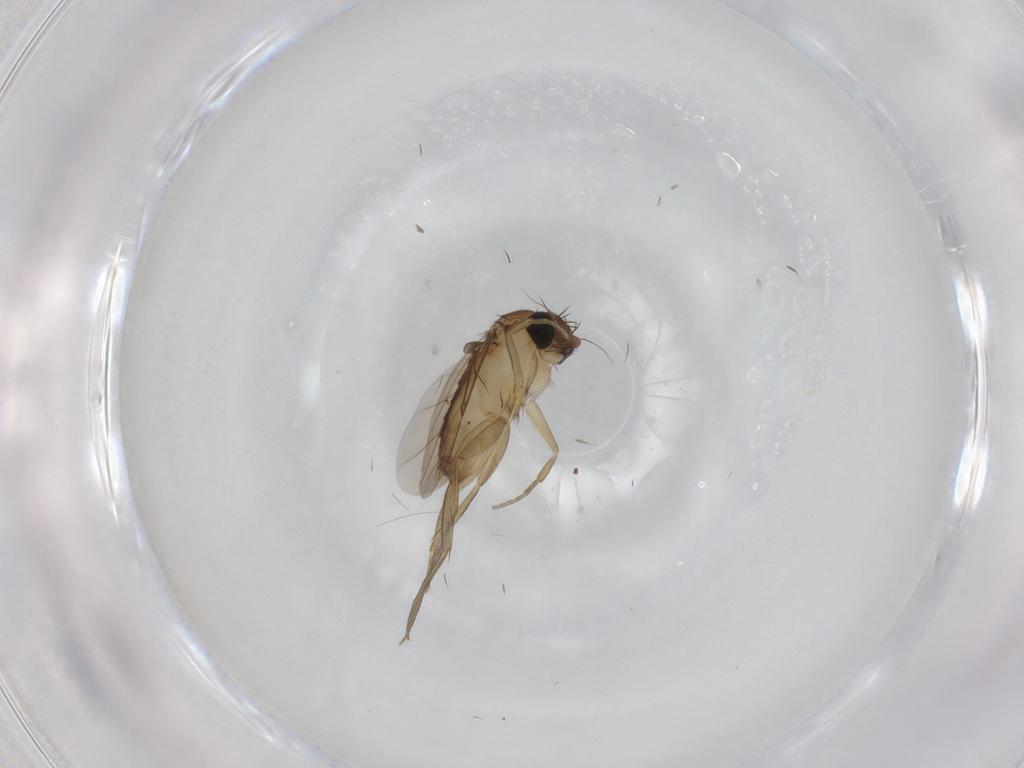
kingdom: Animalia
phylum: Arthropoda
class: Insecta
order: Diptera
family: Phoridae
